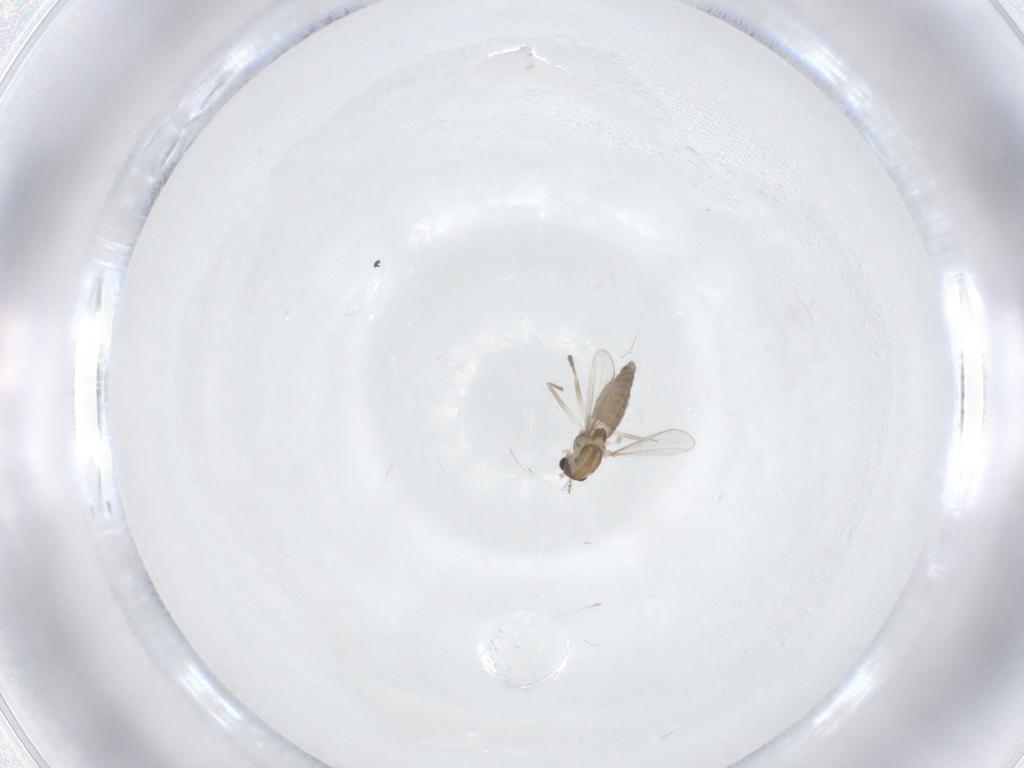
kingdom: Animalia
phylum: Arthropoda
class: Insecta
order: Diptera
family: Chironomidae
